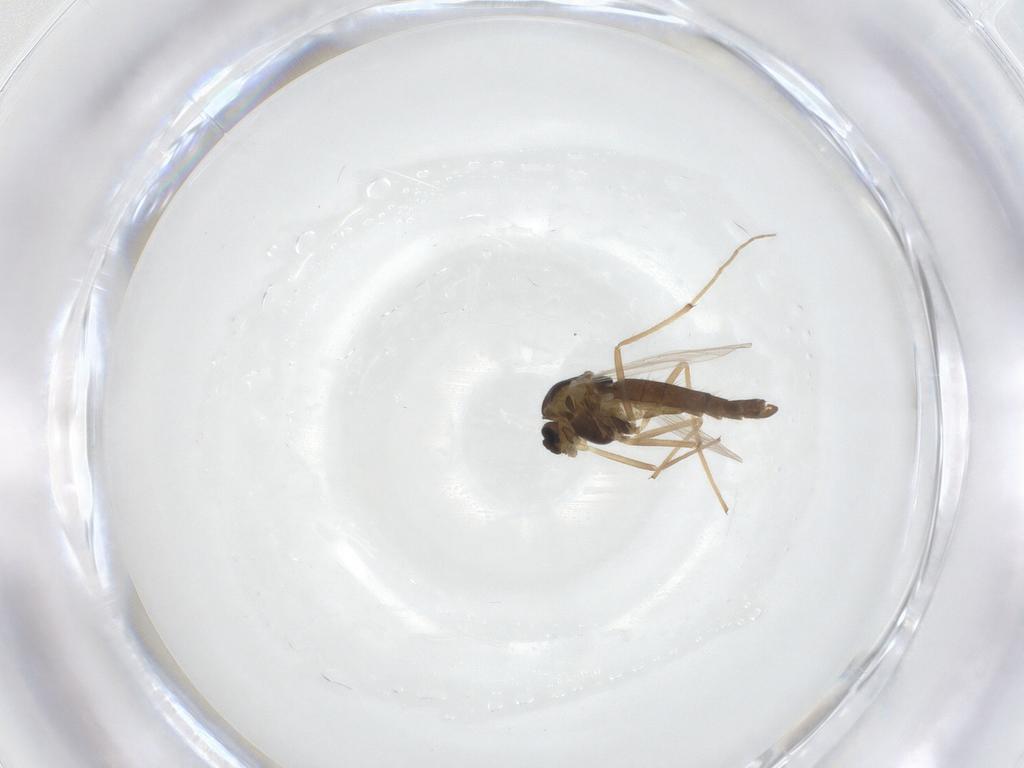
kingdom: Animalia
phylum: Arthropoda
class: Insecta
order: Diptera
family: Chironomidae
